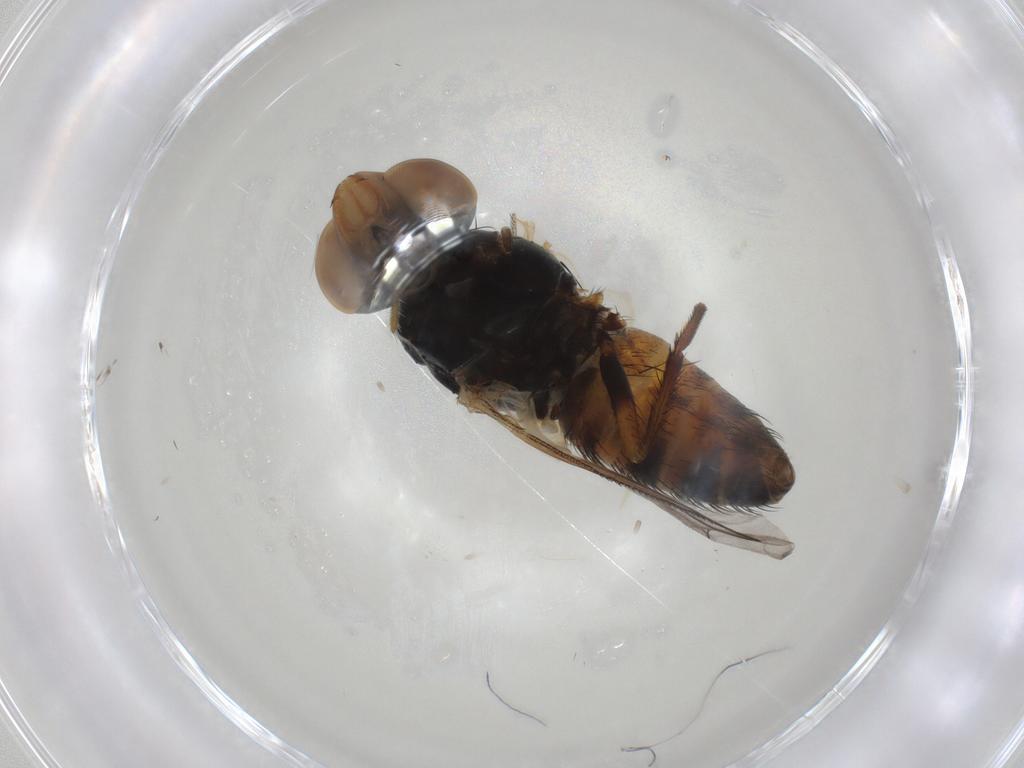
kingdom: Animalia
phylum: Arthropoda
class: Insecta
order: Diptera
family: Sarcophagidae
